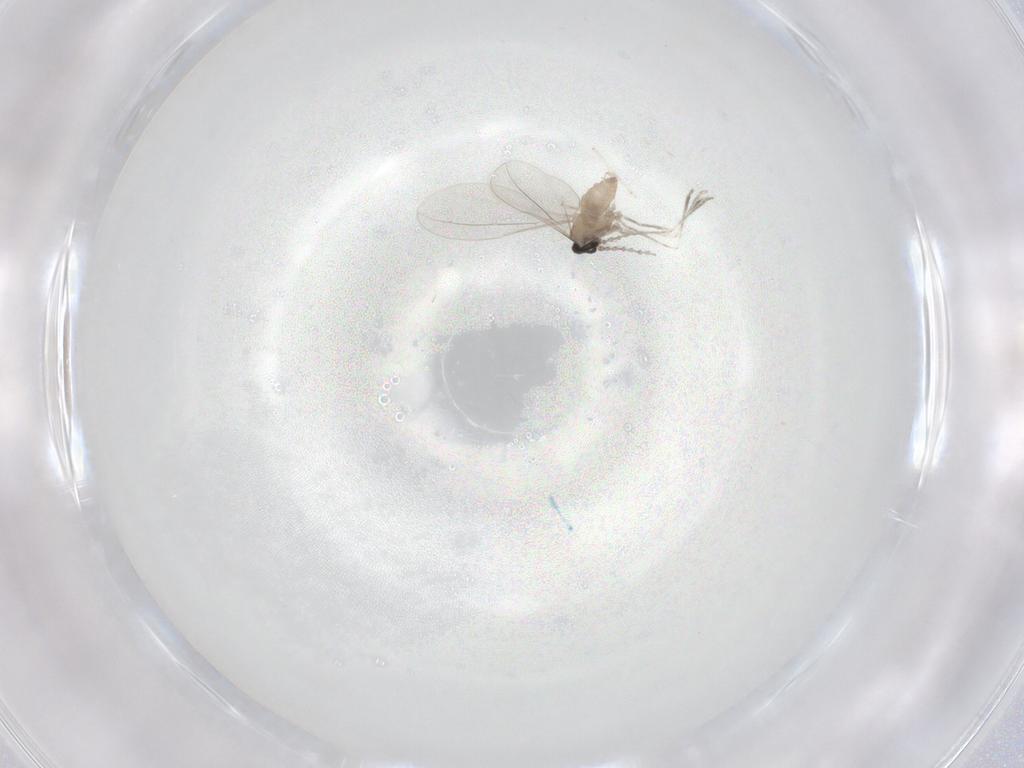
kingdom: Animalia
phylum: Arthropoda
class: Insecta
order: Diptera
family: Cecidomyiidae
